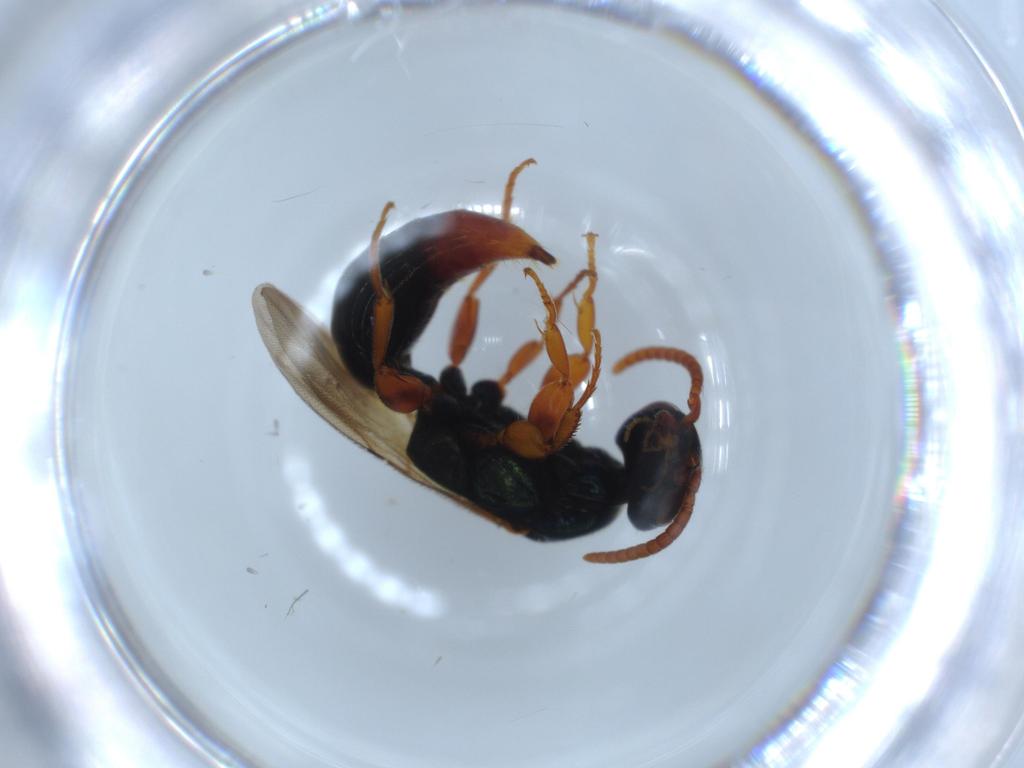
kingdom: Animalia
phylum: Arthropoda
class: Insecta
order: Hymenoptera
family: Bethylidae
